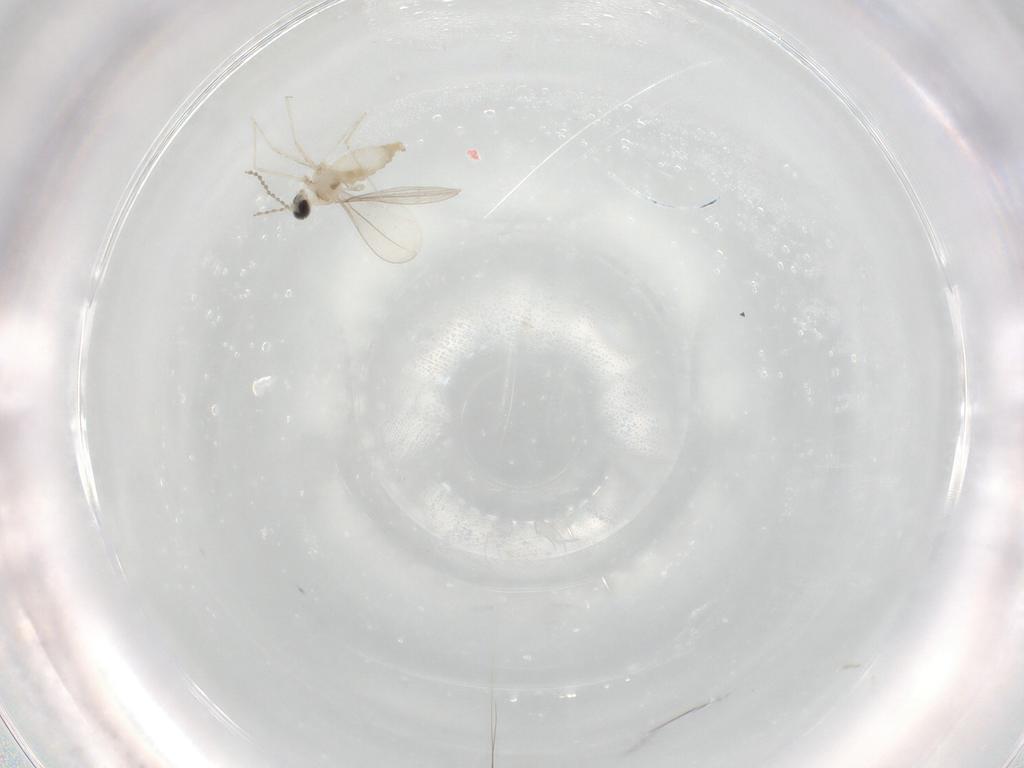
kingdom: Animalia
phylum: Arthropoda
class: Insecta
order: Diptera
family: Cecidomyiidae
